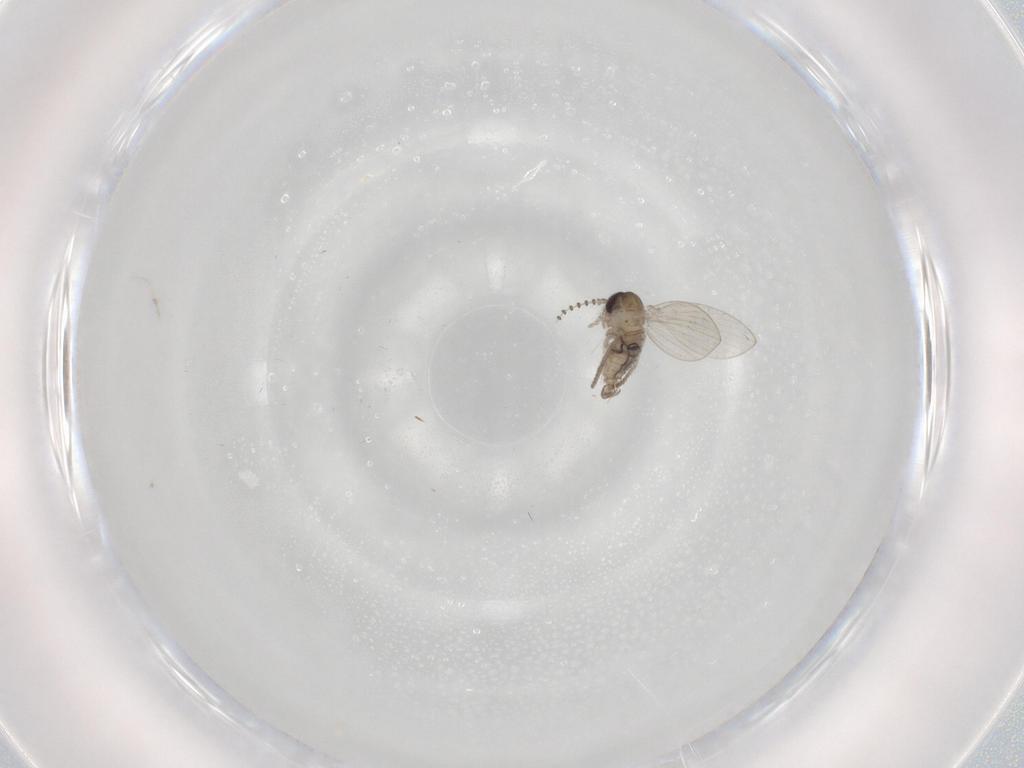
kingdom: Animalia
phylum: Arthropoda
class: Insecta
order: Diptera
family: Psychodidae
